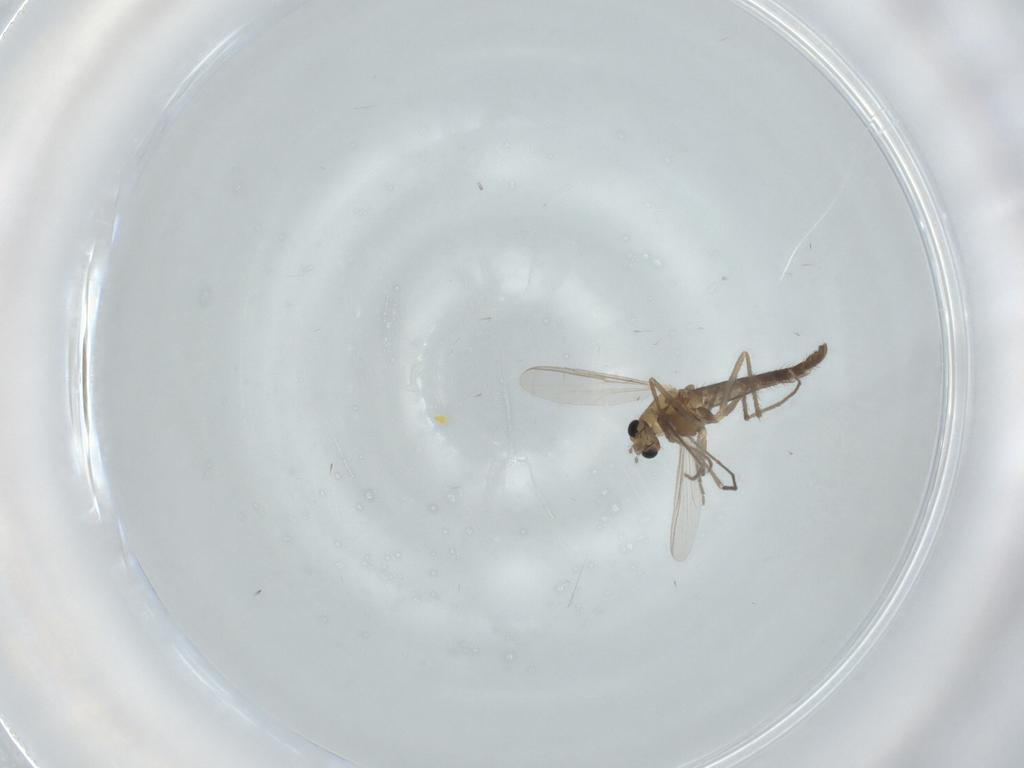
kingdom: Animalia
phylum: Arthropoda
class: Insecta
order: Diptera
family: Chironomidae
